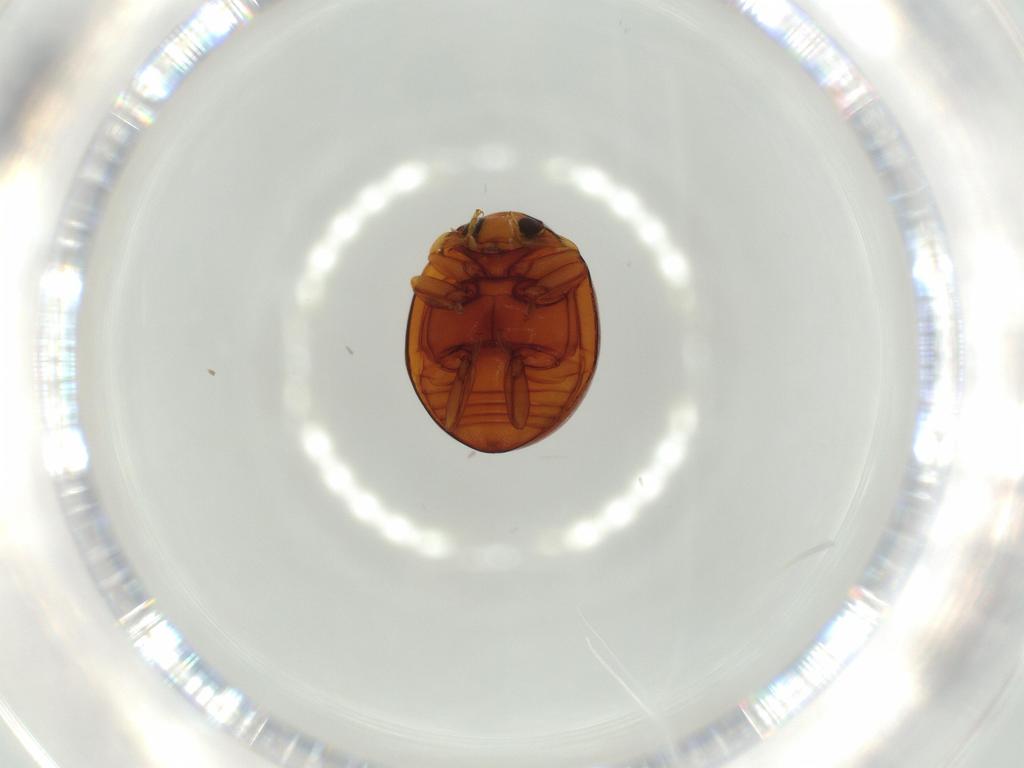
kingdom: Animalia
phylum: Arthropoda
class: Insecta
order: Coleoptera
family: Coccinellidae
